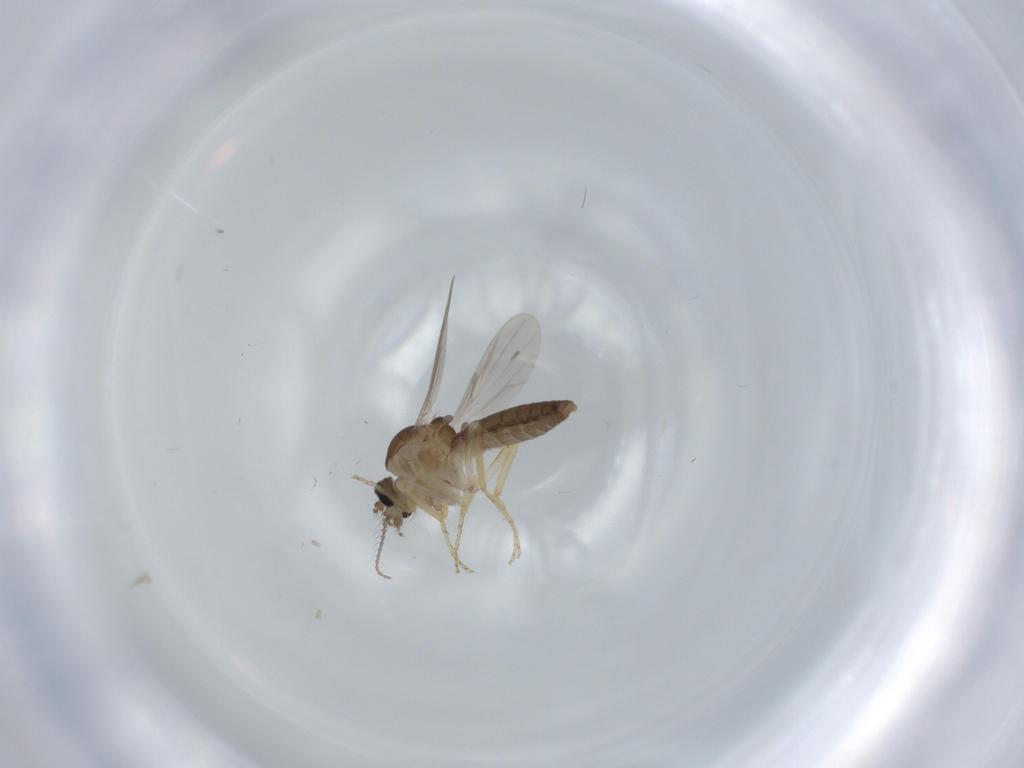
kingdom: Animalia
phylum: Arthropoda
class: Insecta
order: Diptera
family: Ceratopogonidae
